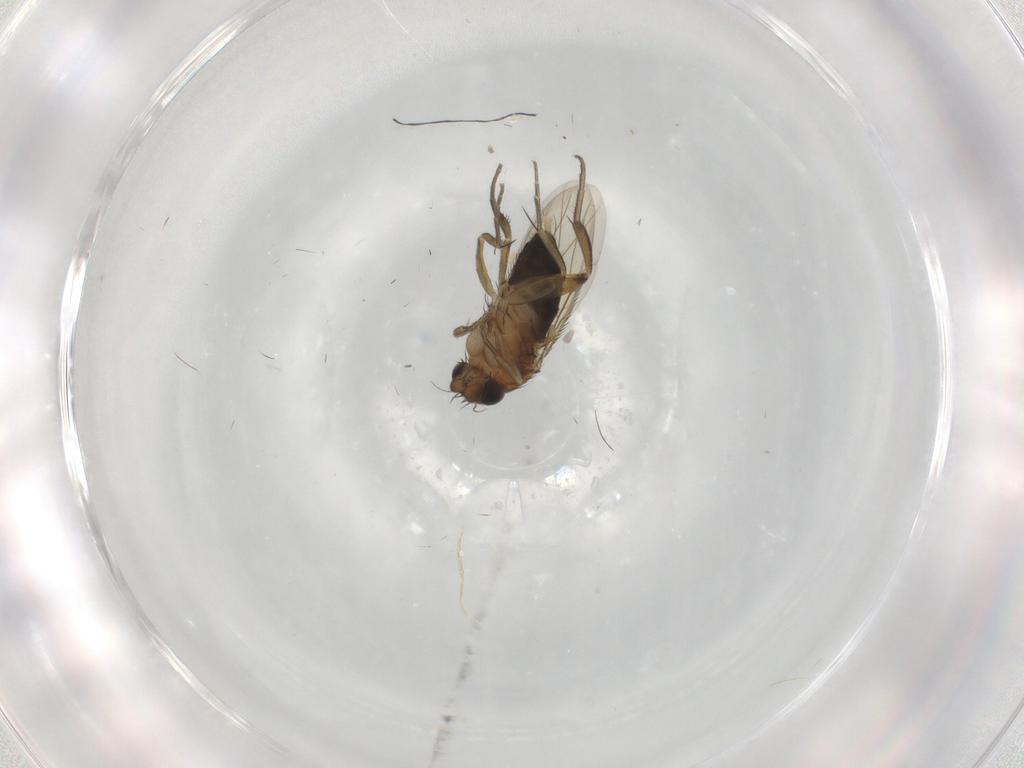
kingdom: Animalia
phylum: Arthropoda
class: Insecta
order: Diptera
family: Phoridae
